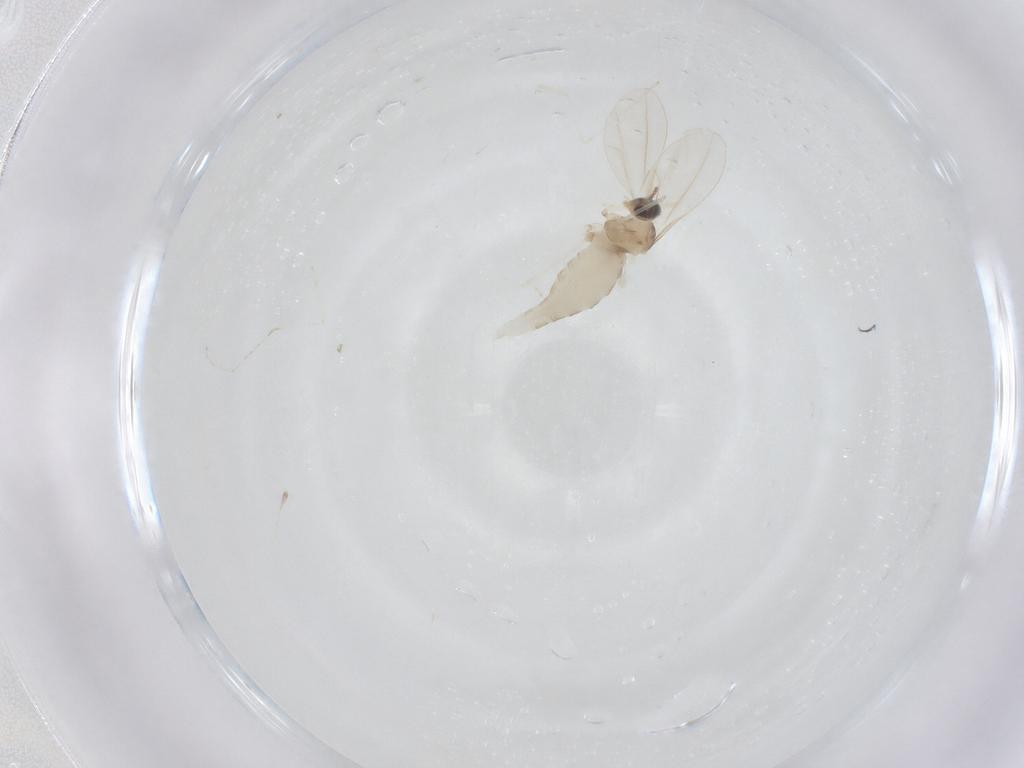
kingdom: Animalia
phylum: Arthropoda
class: Insecta
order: Diptera
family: Cecidomyiidae
